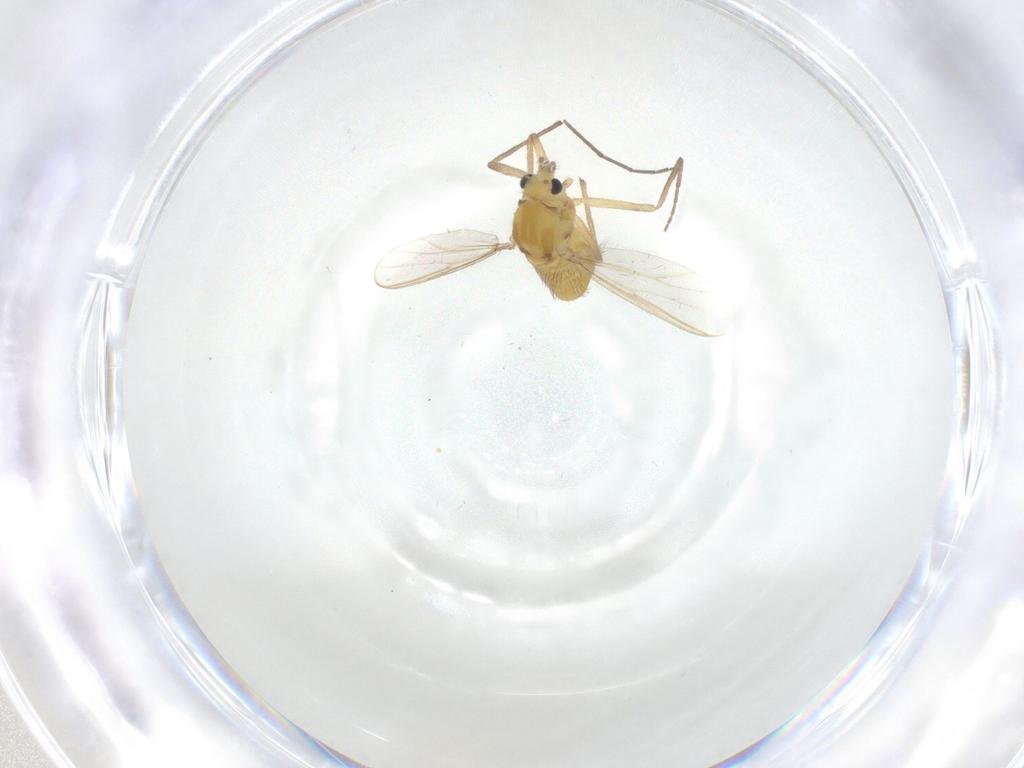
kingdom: Animalia
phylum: Arthropoda
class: Insecta
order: Diptera
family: Chironomidae
